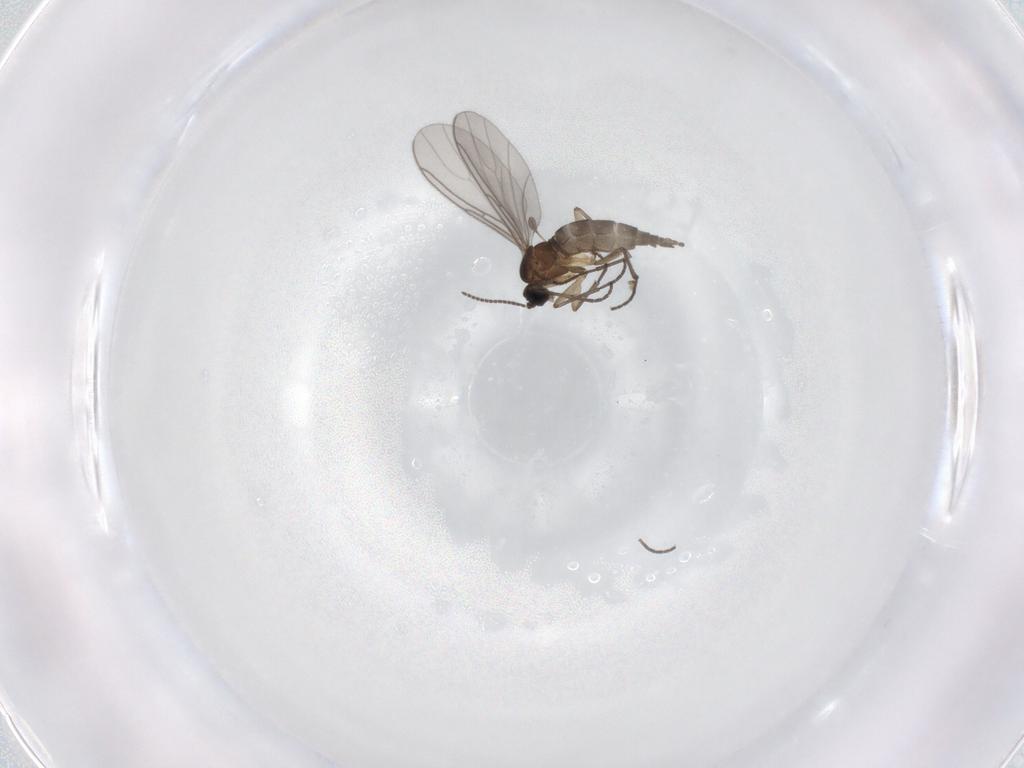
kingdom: Animalia
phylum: Arthropoda
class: Insecta
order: Diptera
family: Sciaridae
